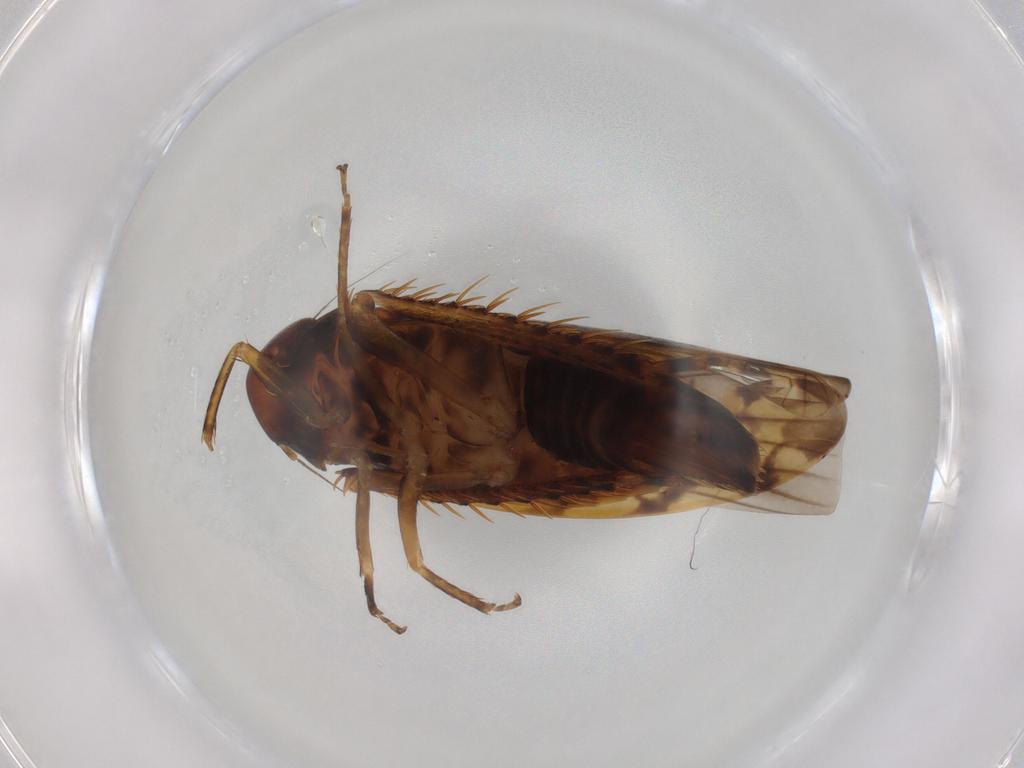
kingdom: Animalia
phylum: Arthropoda
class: Insecta
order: Hemiptera
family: Cicadellidae
